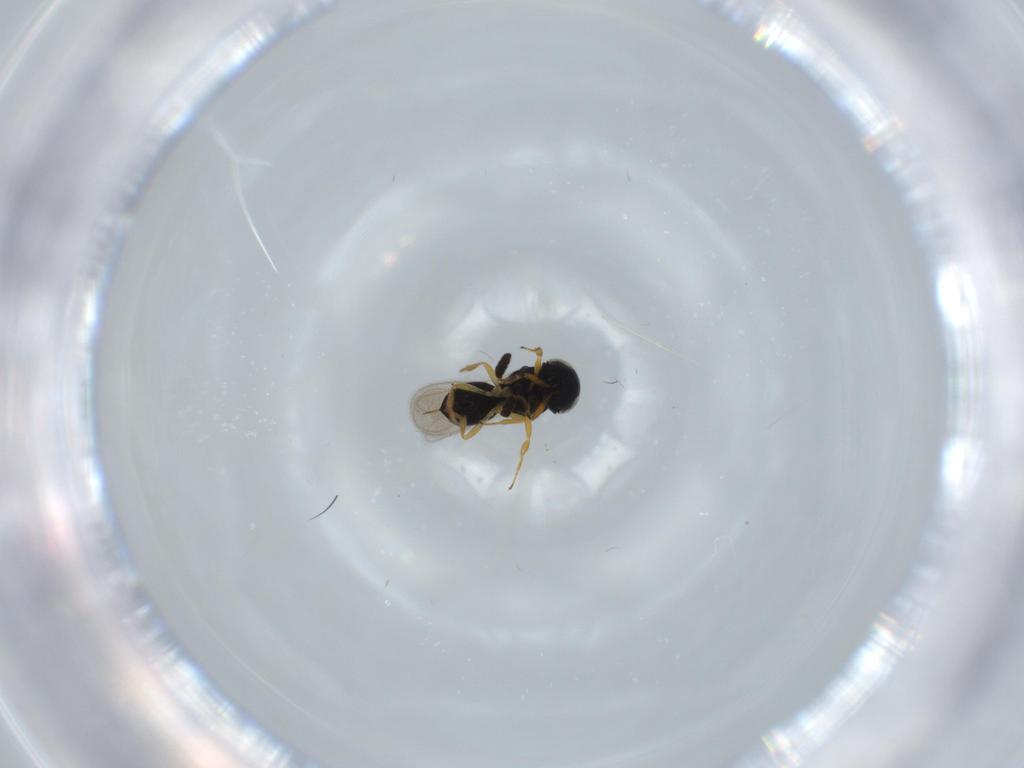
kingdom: Animalia
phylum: Arthropoda
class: Insecta
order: Hymenoptera
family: Scelionidae
